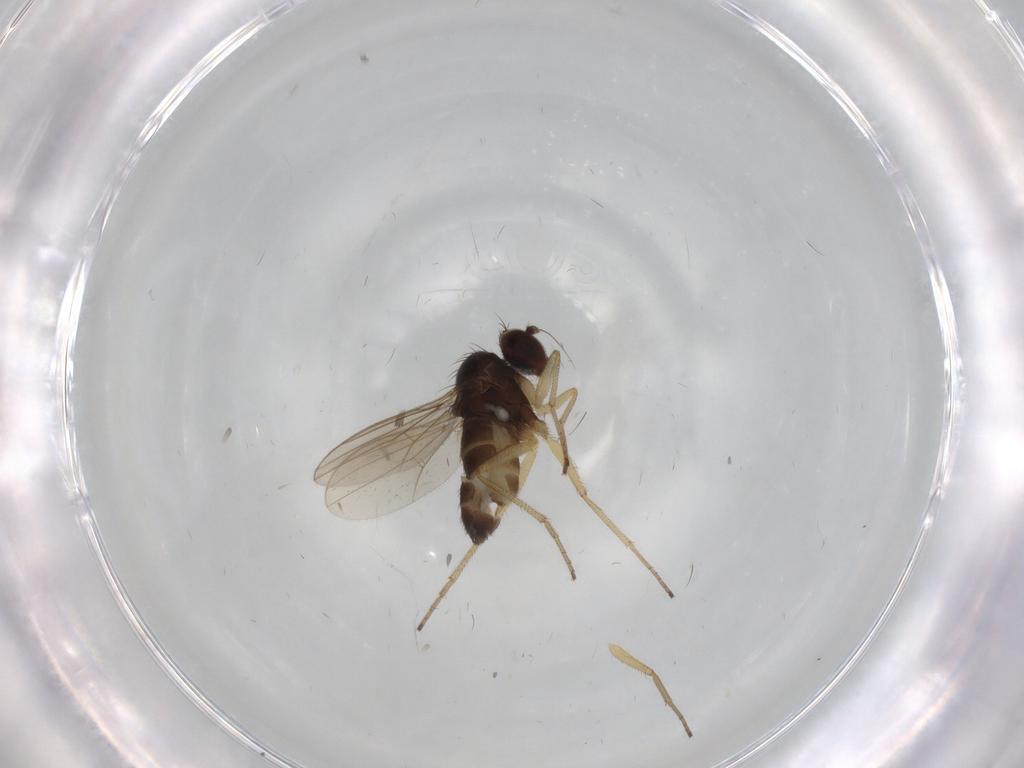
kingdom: Animalia
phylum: Arthropoda
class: Insecta
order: Diptera
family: Dolichopodidae
